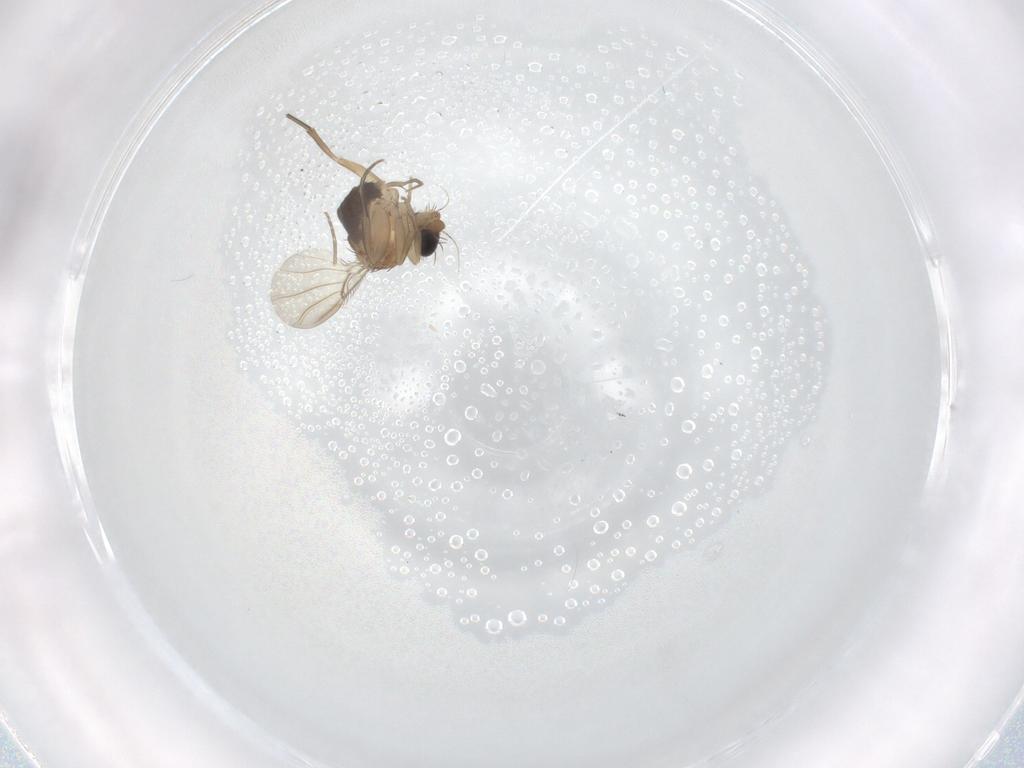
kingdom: Animalia
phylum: Arthropoda
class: Insecta
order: Diptera
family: Phoridae
